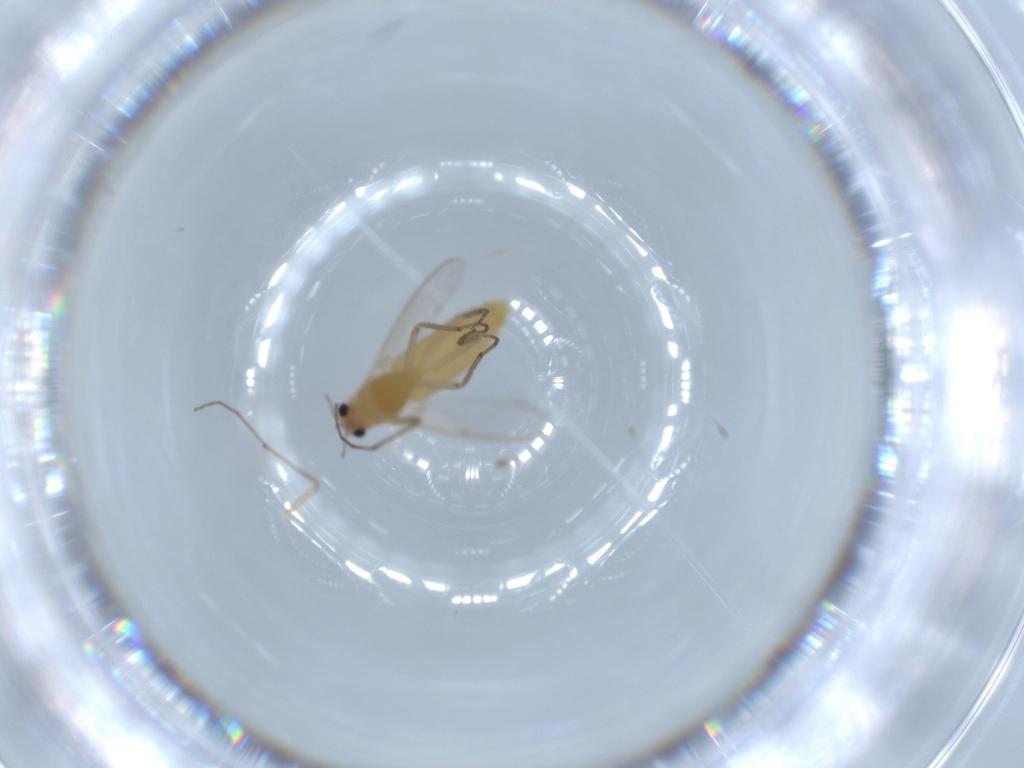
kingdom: Animalia
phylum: Arthropoda
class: Insecta
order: Diptera
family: Chironomidae
